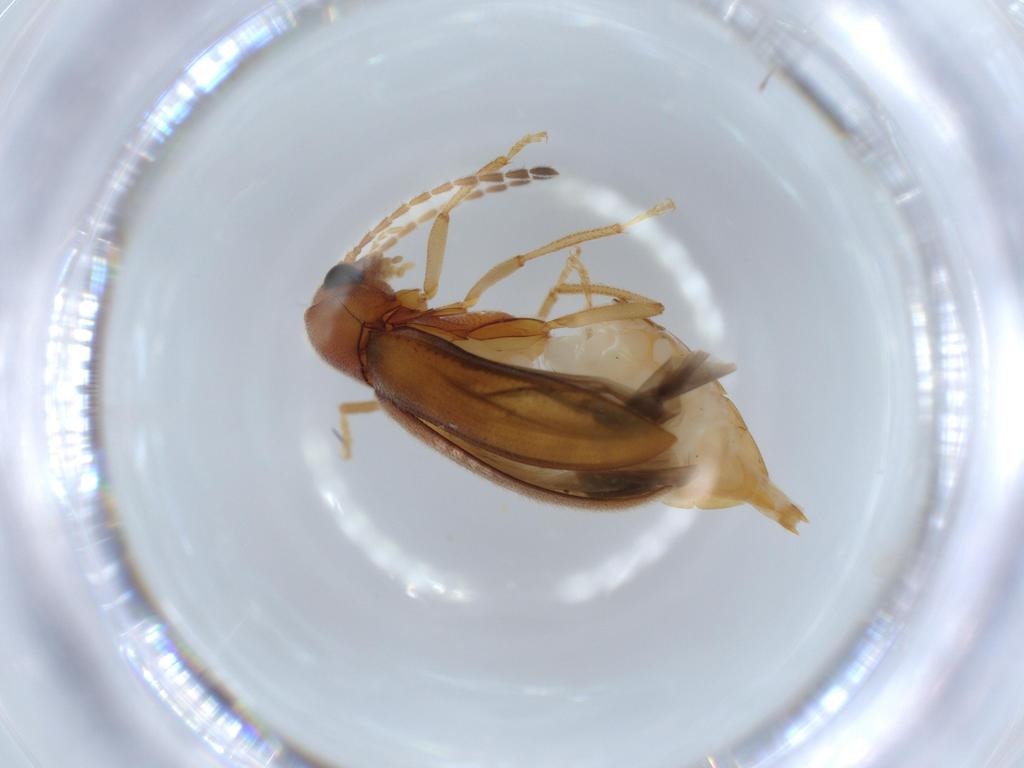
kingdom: Animalia
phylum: Arthropoda
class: Insecta
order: Coleoptera
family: Ptilodactylidae
